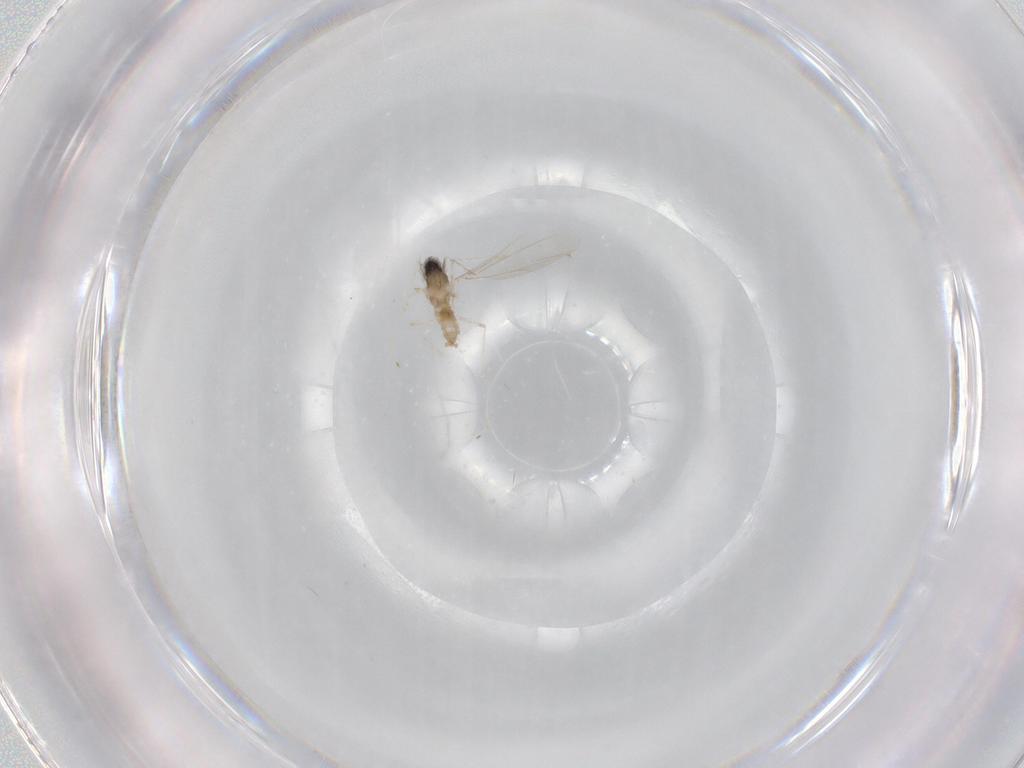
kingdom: Animalia
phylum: Arthropoda
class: Insecta
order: Diptera
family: Cecidomyiidae
